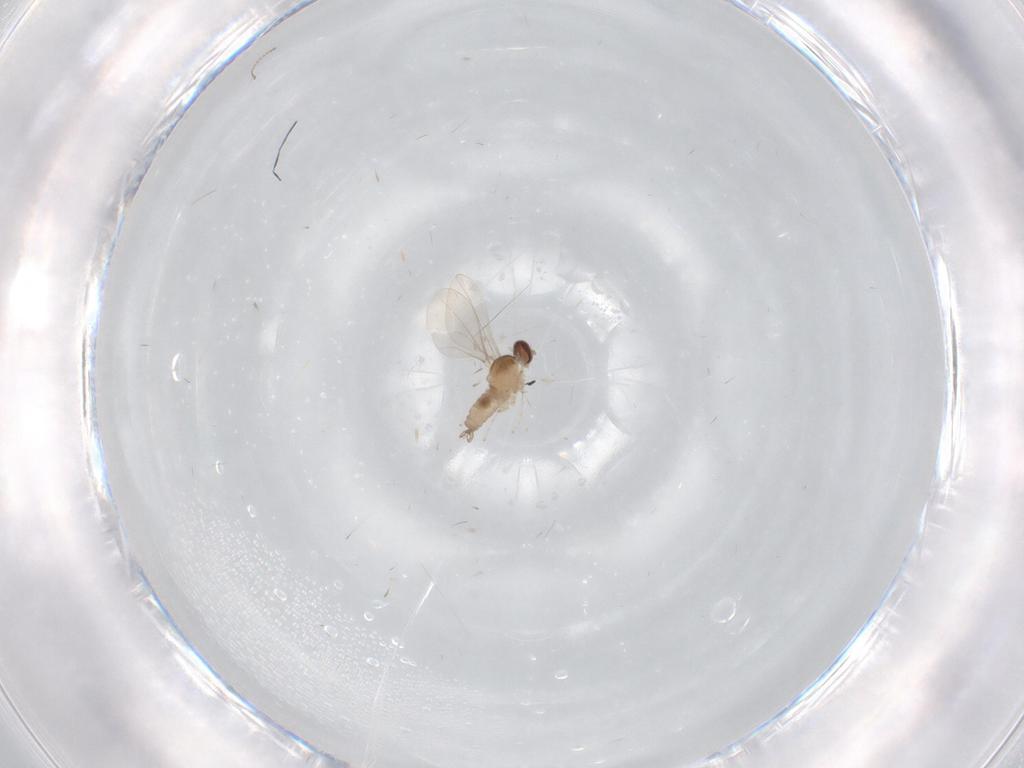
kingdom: Animalia
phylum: Arthropoda
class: Insecta
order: Diptera
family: Cecidomyiidae
